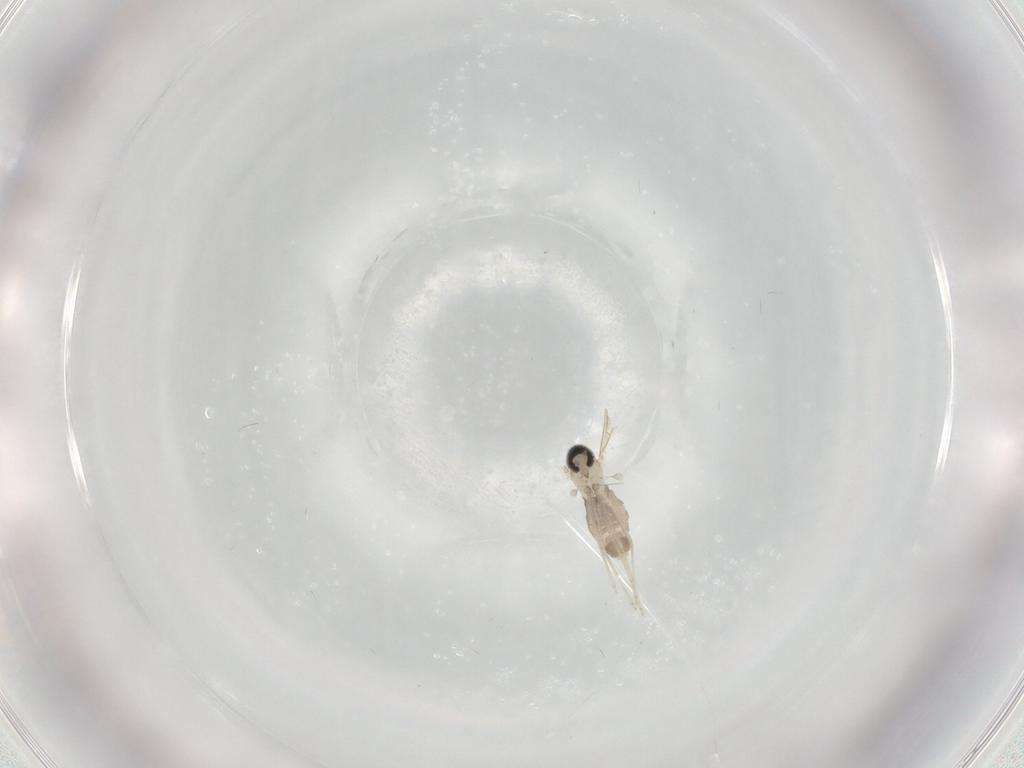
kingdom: Animalia
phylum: Arthropoda
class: Insecta
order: Diptera
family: Cecidomyiidae
